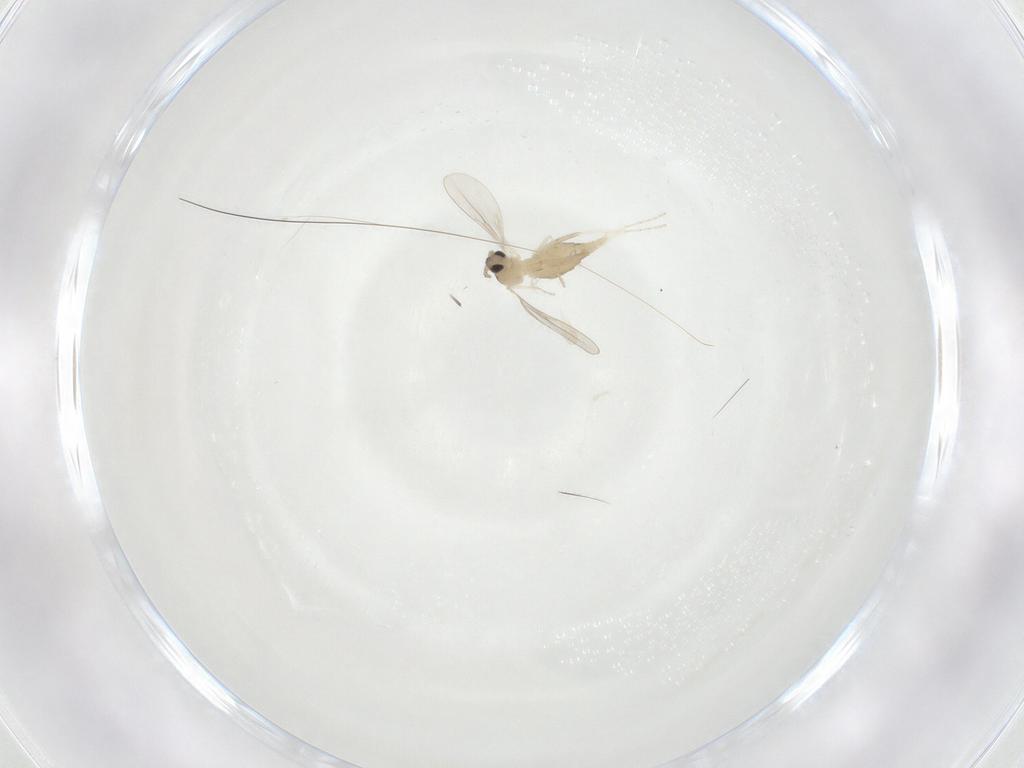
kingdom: Animalia
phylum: Arthropoda
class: Insecta
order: Diptera
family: Cecidomyiidae
